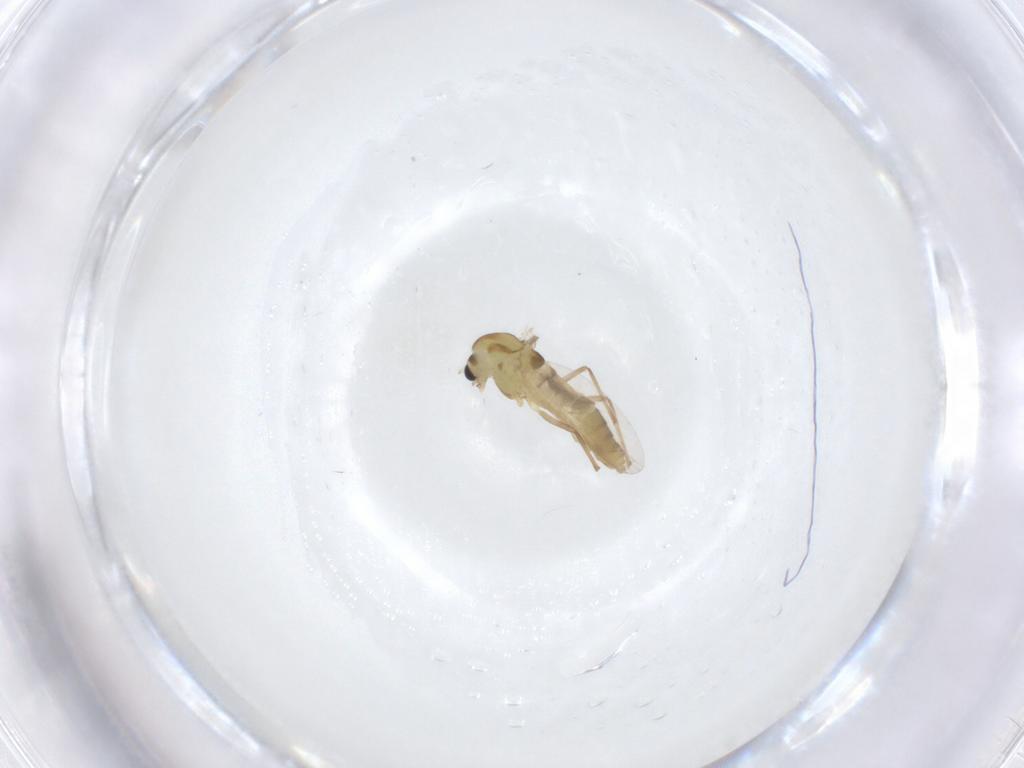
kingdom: Animalia
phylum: Arthropoda
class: Insecta
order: Diptera
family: Chironomidae
